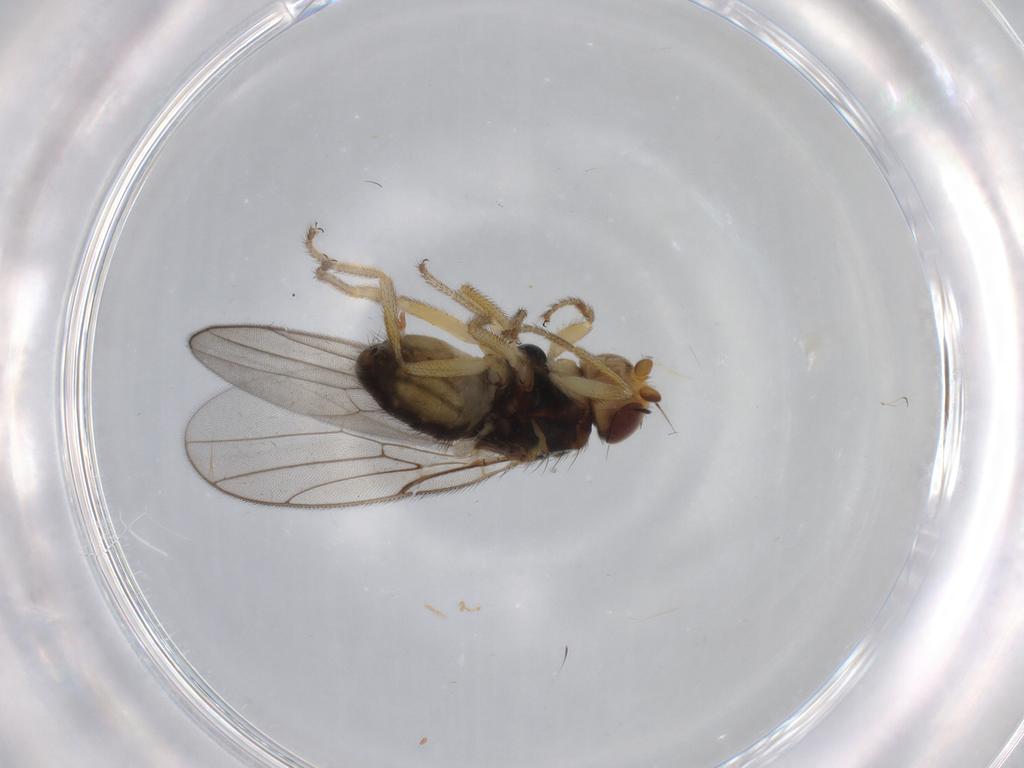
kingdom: Animalia
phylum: Arthropoda
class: Insecta
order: Diptera
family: Chloropidae
